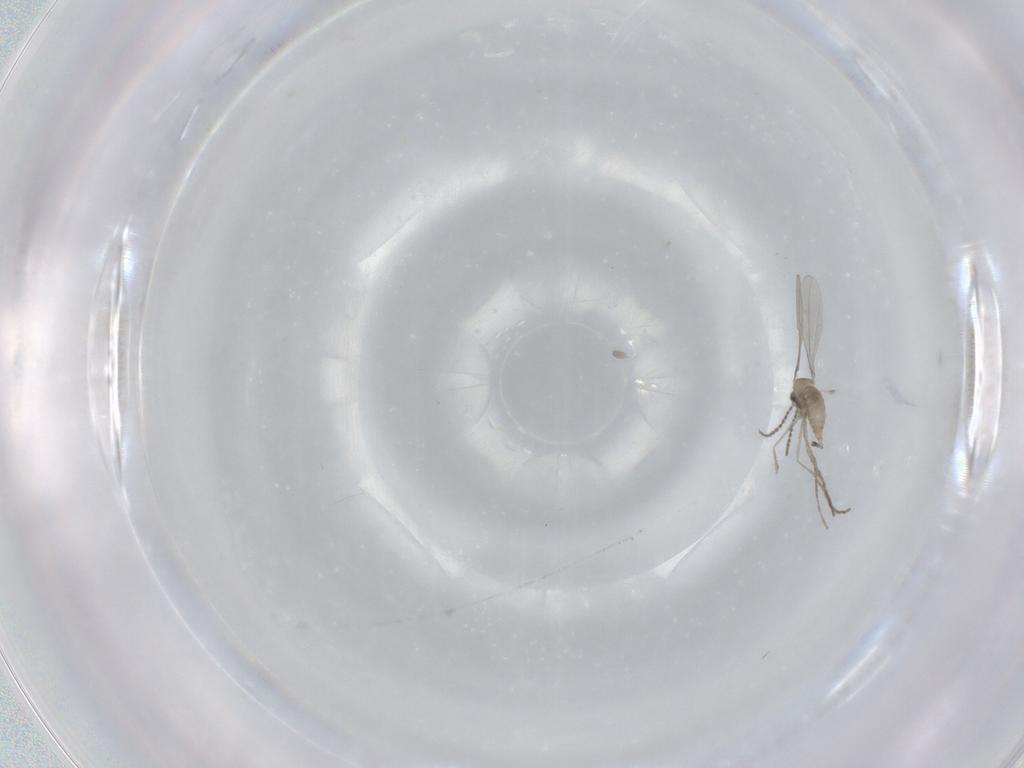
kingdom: Animalia
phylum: Arthropoda
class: Insecta
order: Diptera
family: Cecidomyiidae
